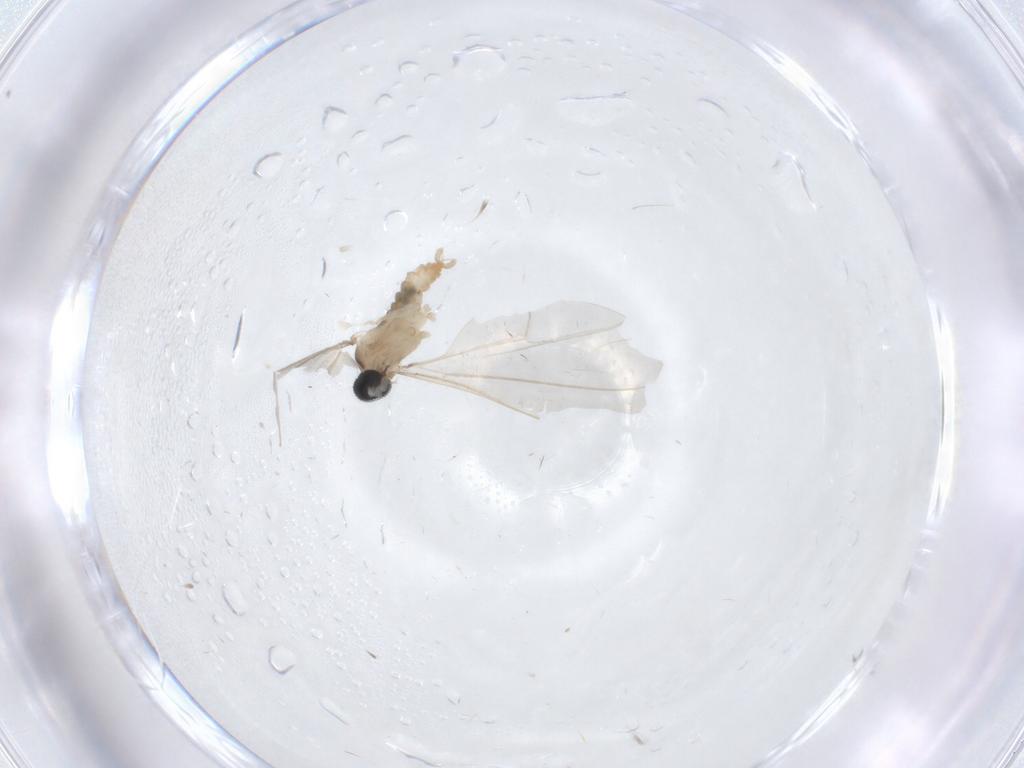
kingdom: Animalia
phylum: Arthropoda
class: Insecta
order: Diptera
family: Cecidomyiidae
